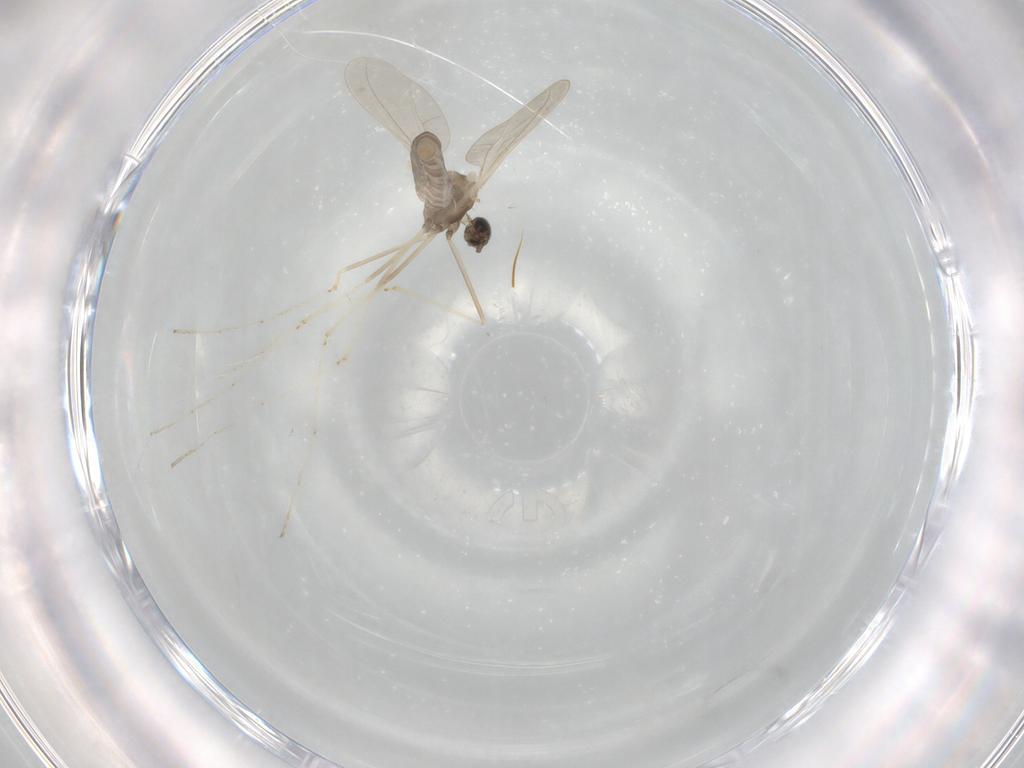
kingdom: Animalia
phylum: Arthropoda
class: Insecta
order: Diptera
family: Cecidomyiidae
